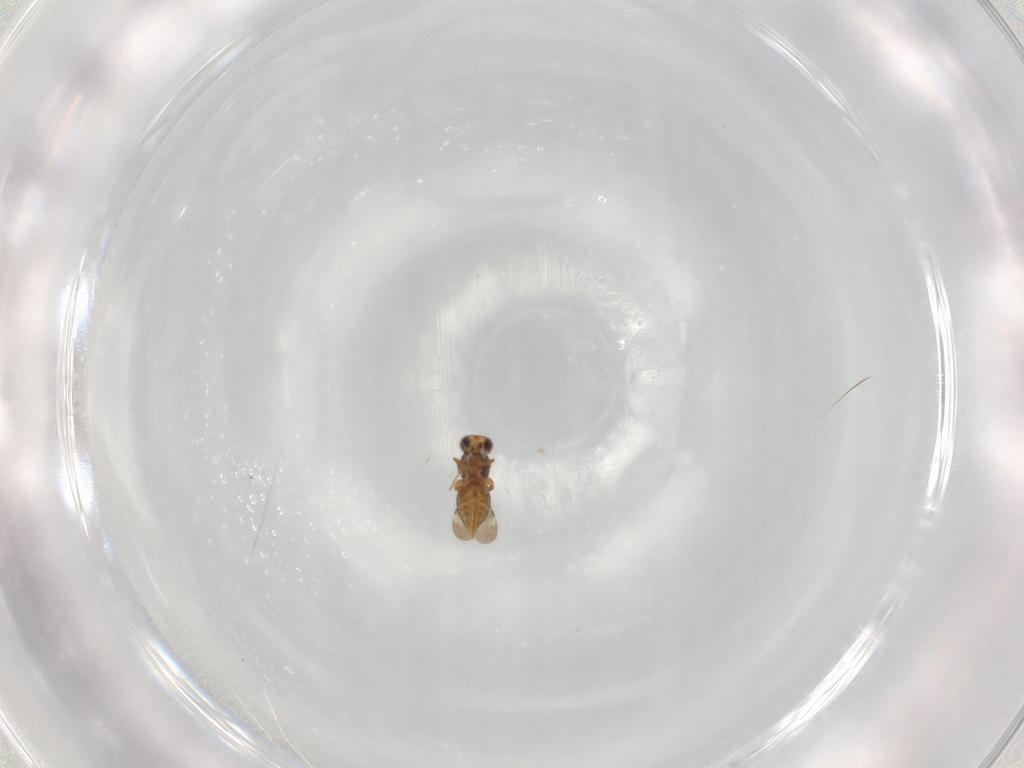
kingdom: Animalia
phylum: Arthropoda
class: Insecta
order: Hymenoptera
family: Ceraphronidae
